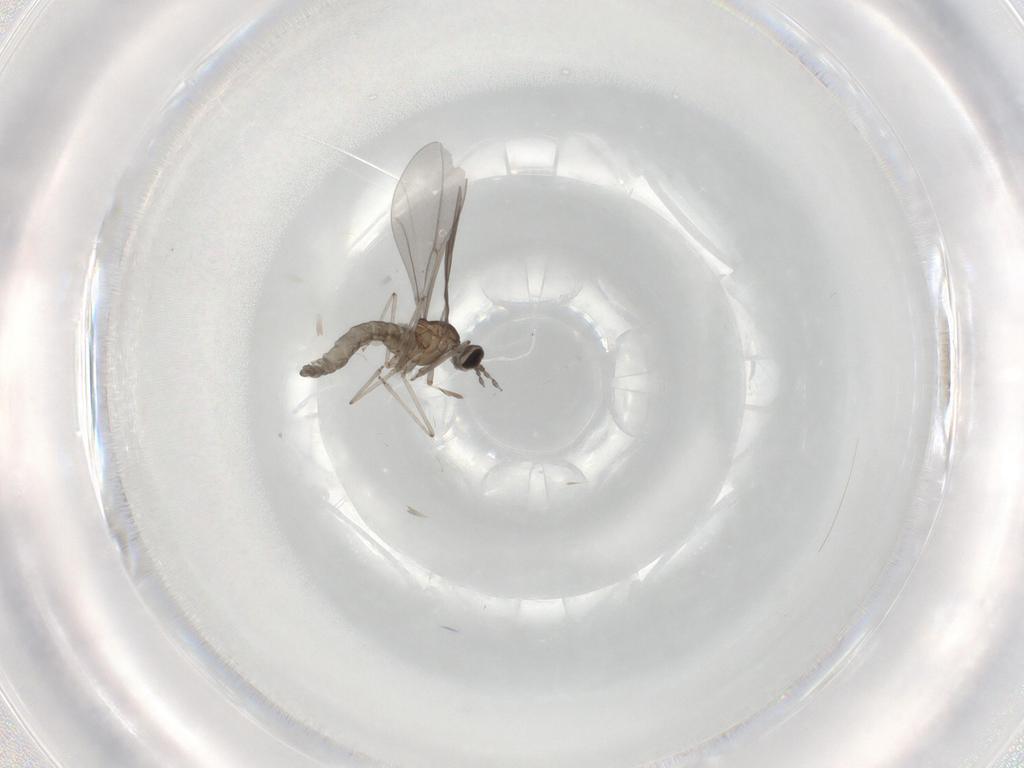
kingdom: Animalia
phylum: Arthropoda
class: Insecta
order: Diptera
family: Cecidomyiidae
